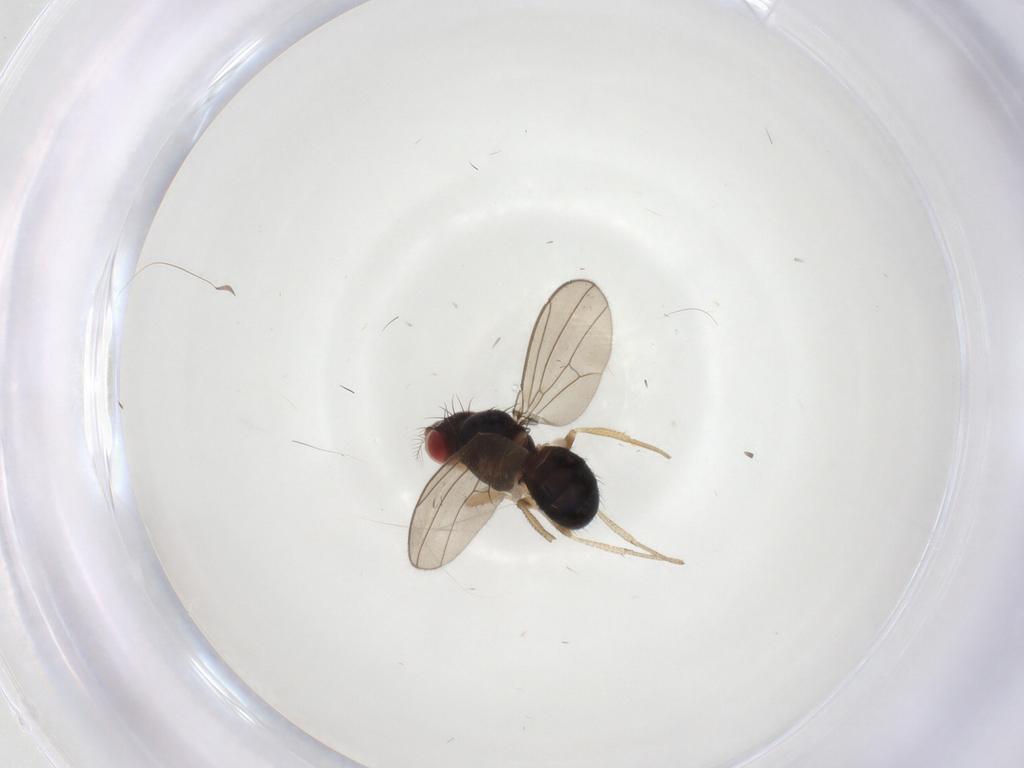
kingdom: Animalia
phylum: Arthropoda
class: Insecta
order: Diptera
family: Drosophilidae
